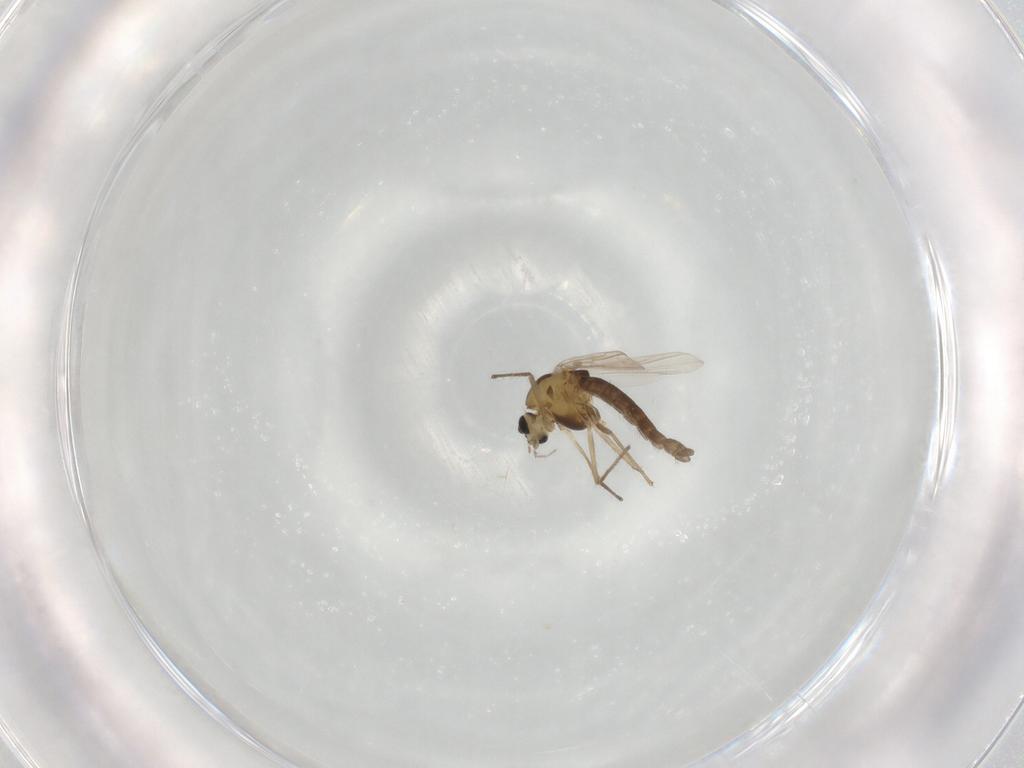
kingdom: Animalia
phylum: Arthropoda
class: Insecta
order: Diptera
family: Chironomidae
